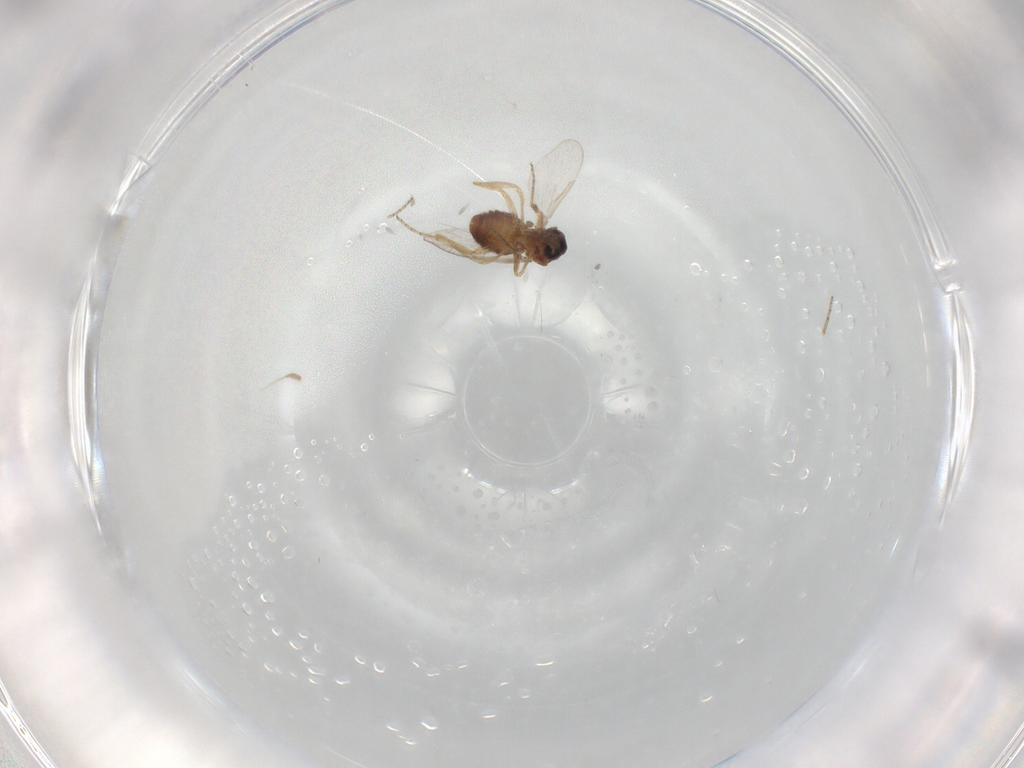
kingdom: Animalia
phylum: Arthropoda
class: Insecta
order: Diptera
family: Ceratopogonidae
